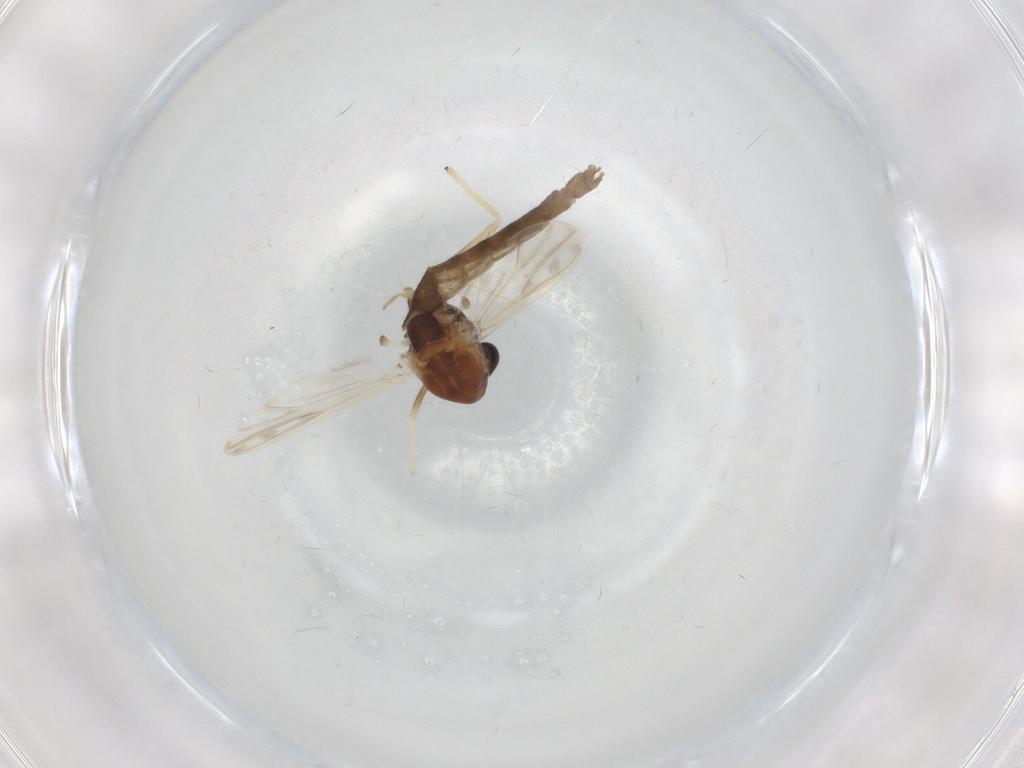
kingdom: Animalia
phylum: Arthropoda
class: Insecta
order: Diptera
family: Chironomidae
